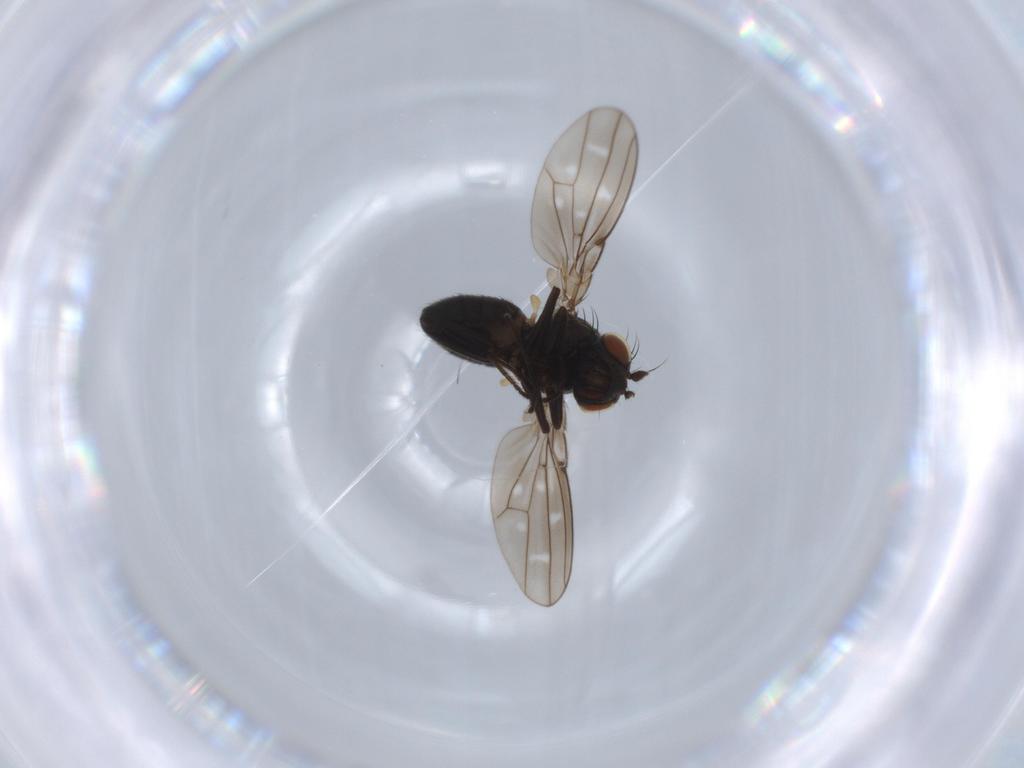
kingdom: Animalia
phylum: Arthropoda
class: Insecta
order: Diptera
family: Ephydridae
